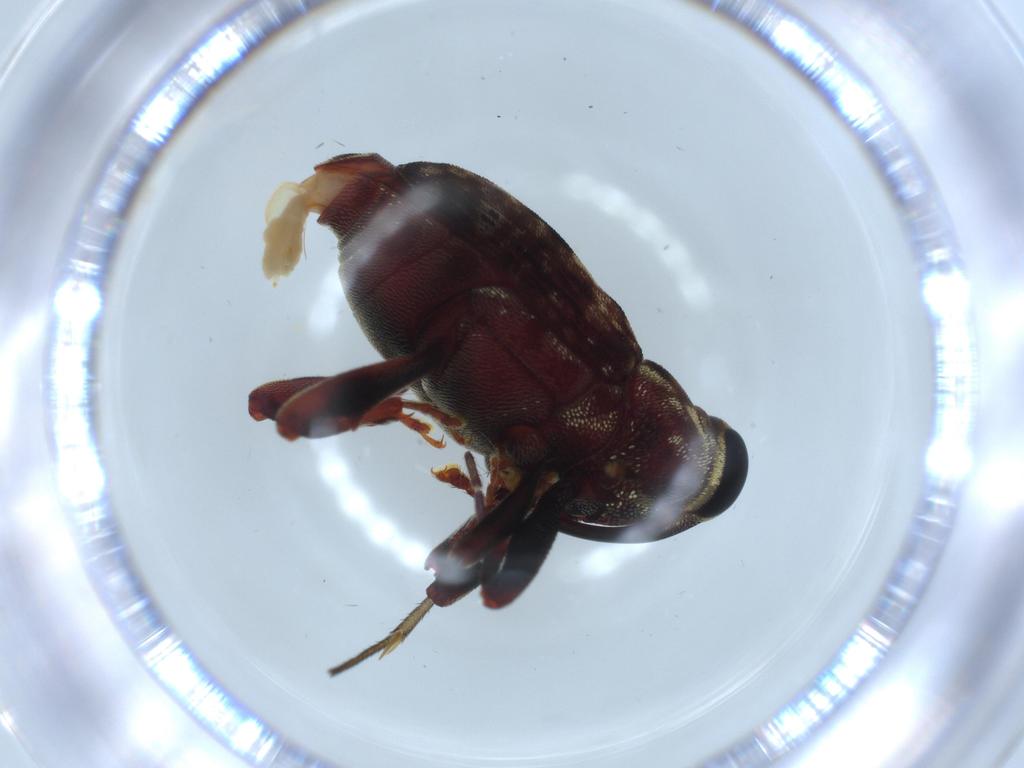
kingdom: Animalia
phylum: Arthropoda
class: Insecta
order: Coleoptera
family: Curculionidae
